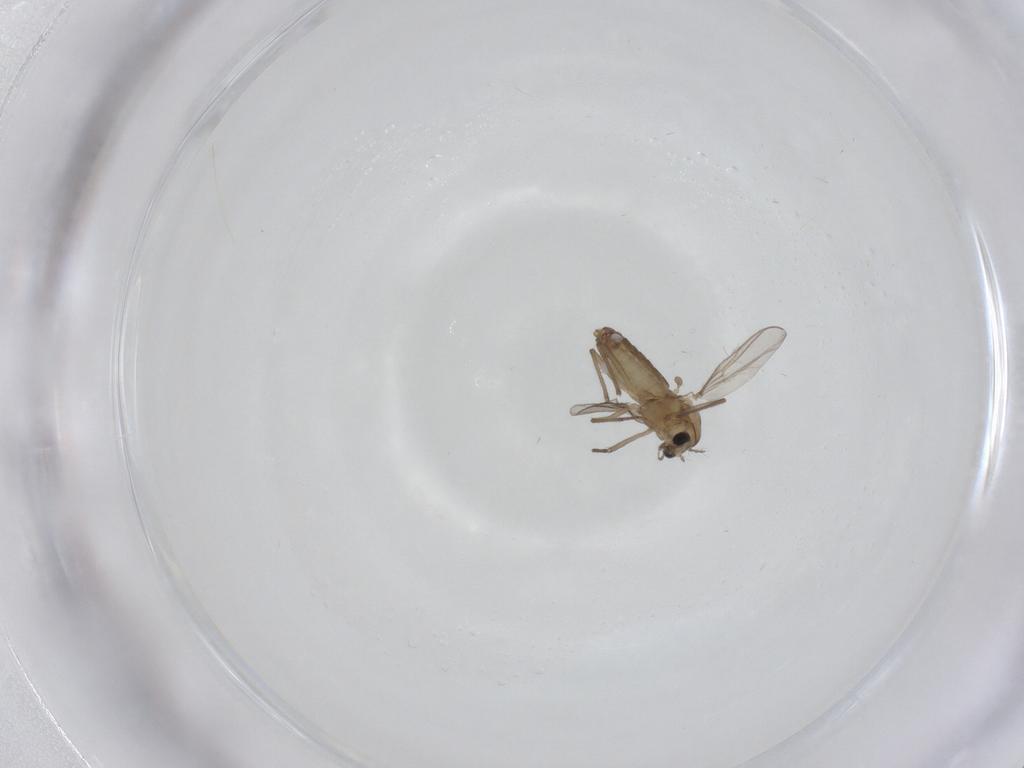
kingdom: Animalia
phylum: Arthropoda
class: Insecta
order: Diptera
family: Chironomidae
